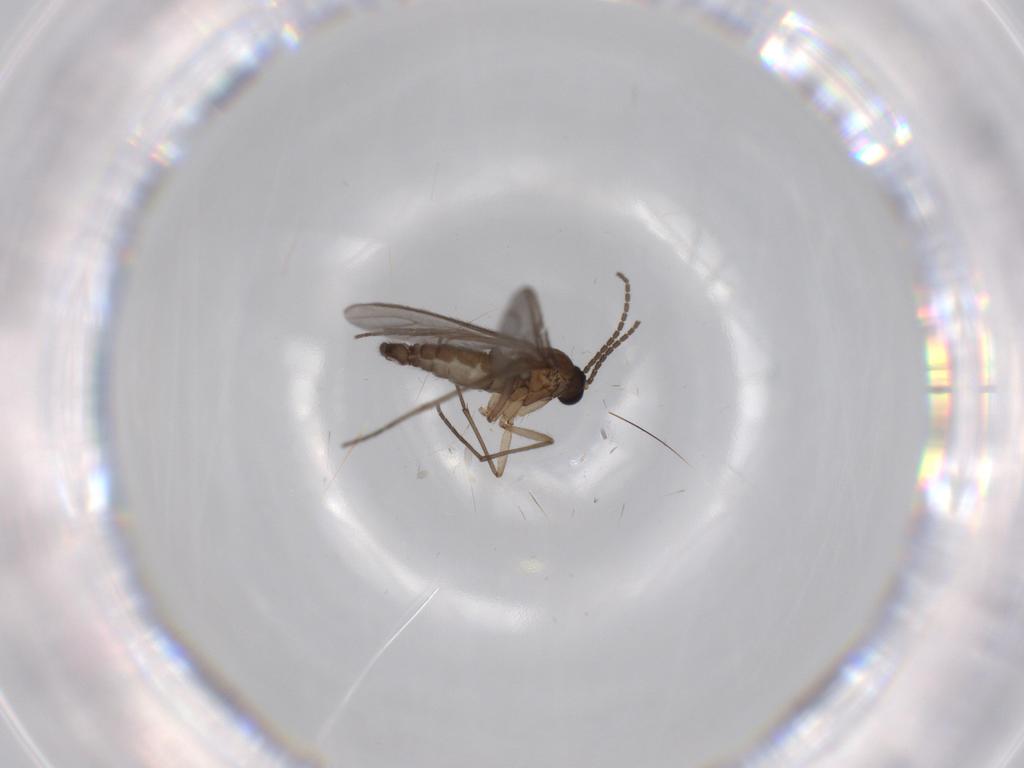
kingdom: Animalia
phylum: Arthropoda
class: Insecta
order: Diptera
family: Sciaridae
